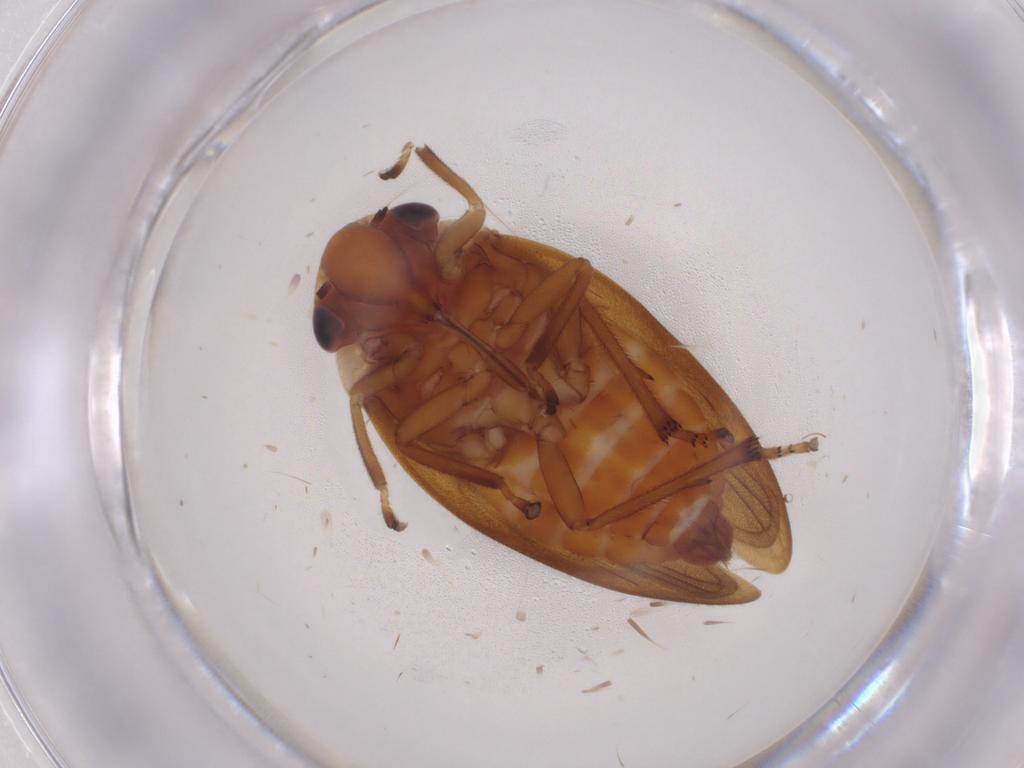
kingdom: Animalia
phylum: Arthropoda
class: Insecta
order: Hemiptera
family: Cercopidae
